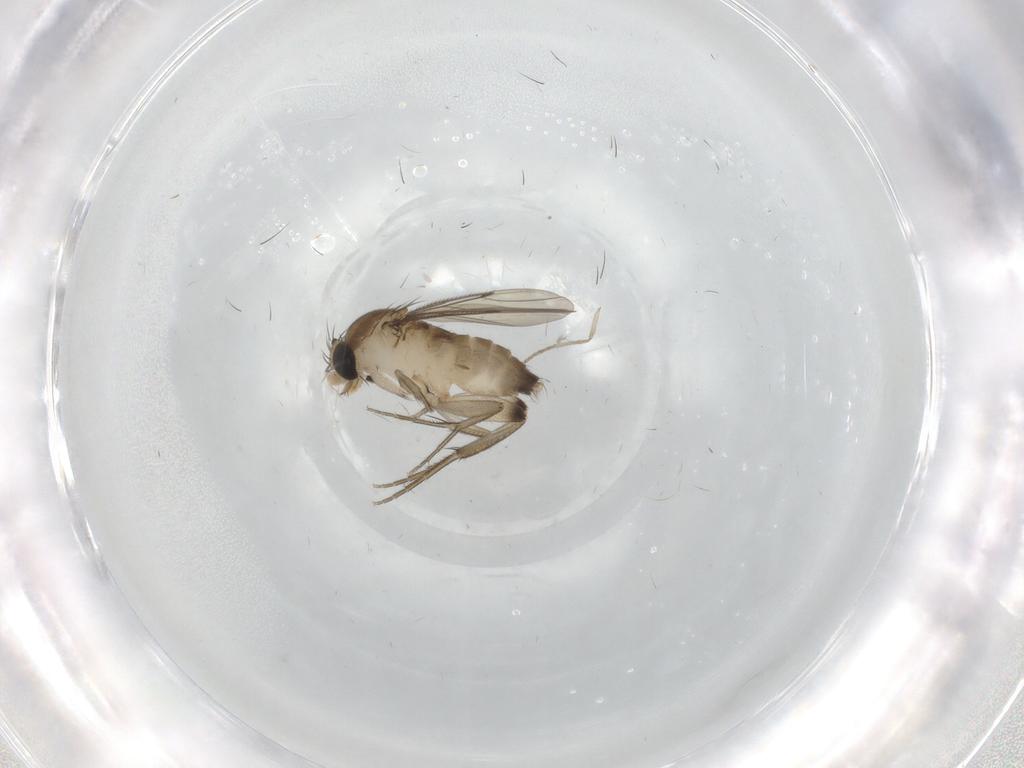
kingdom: Animalia
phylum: Arthropoda
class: Insecta
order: Diptera
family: Phoridae
